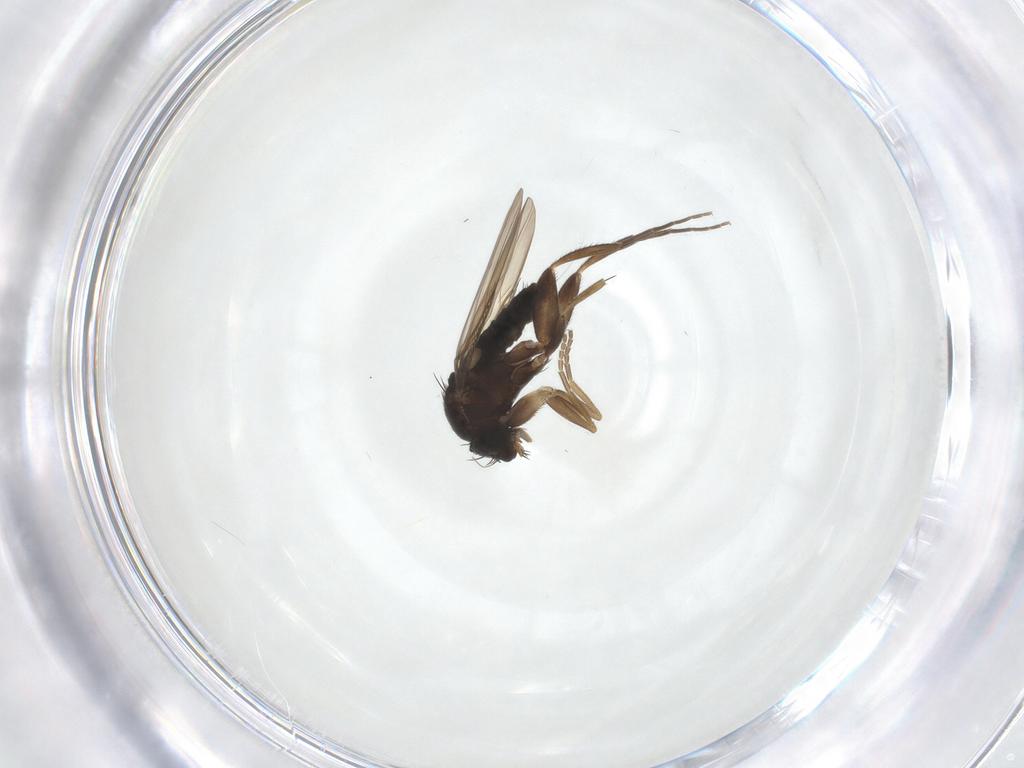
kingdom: Animalia
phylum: Arthropoda
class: Insecta
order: Diptera
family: Phoridae
